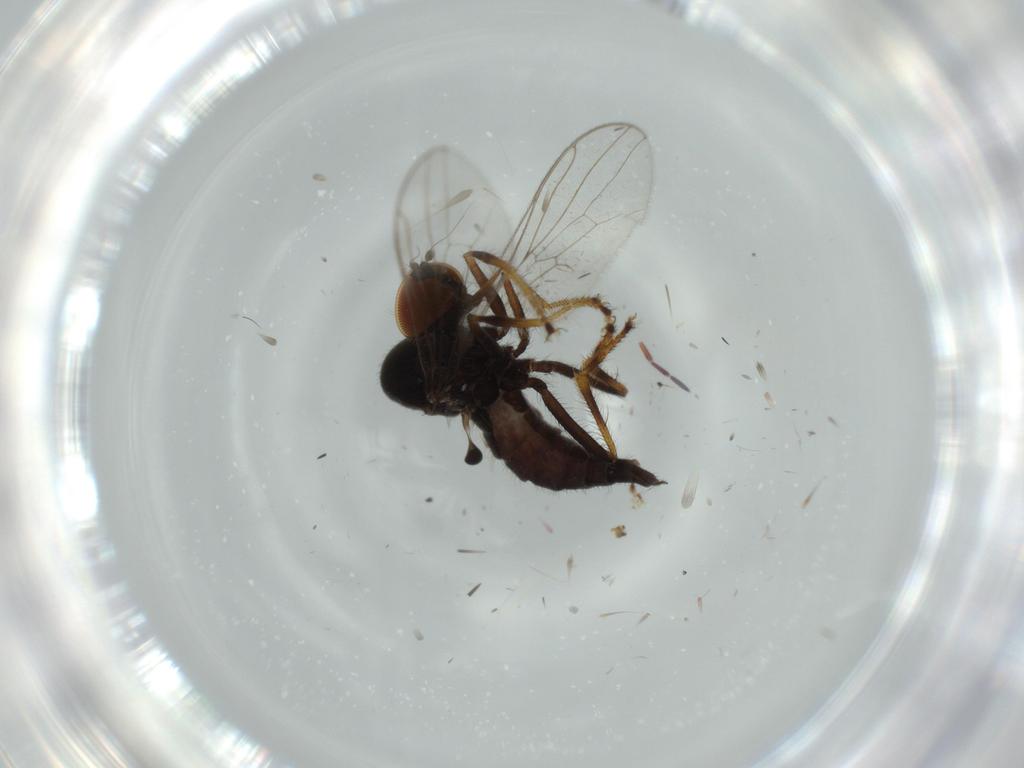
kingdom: Animalia
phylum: Arthropoda
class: Insecta
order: Diptera
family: Hybotidae
